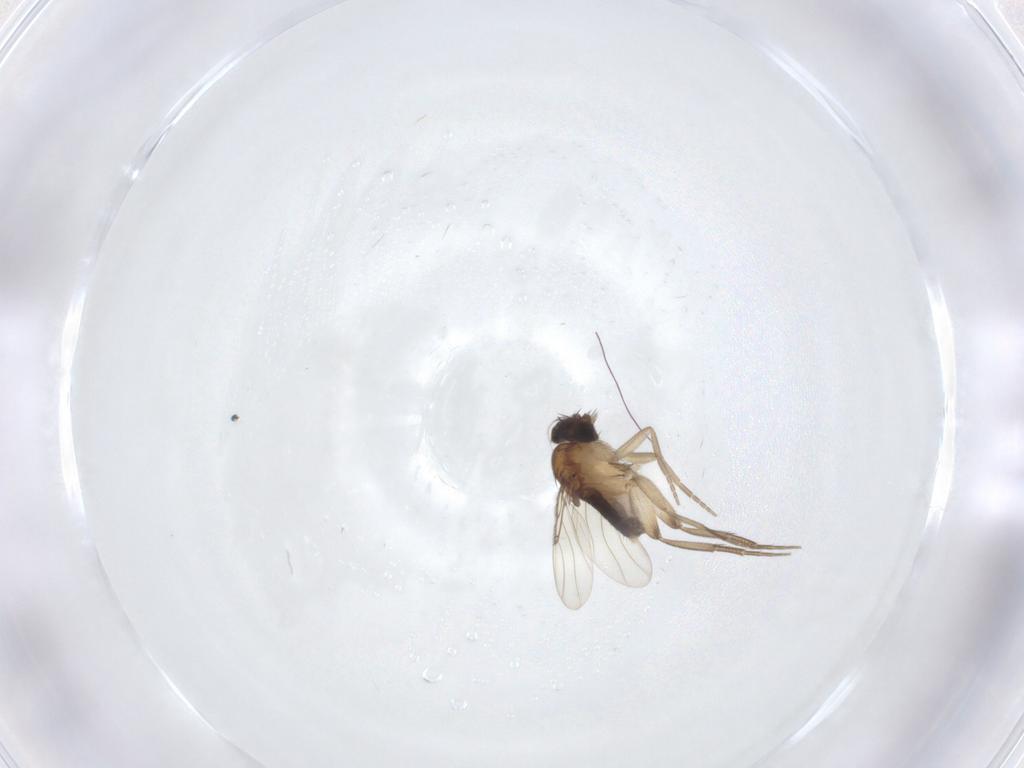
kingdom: Animalia
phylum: Arthropoda
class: Insecta
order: Diptera
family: Phoridae
